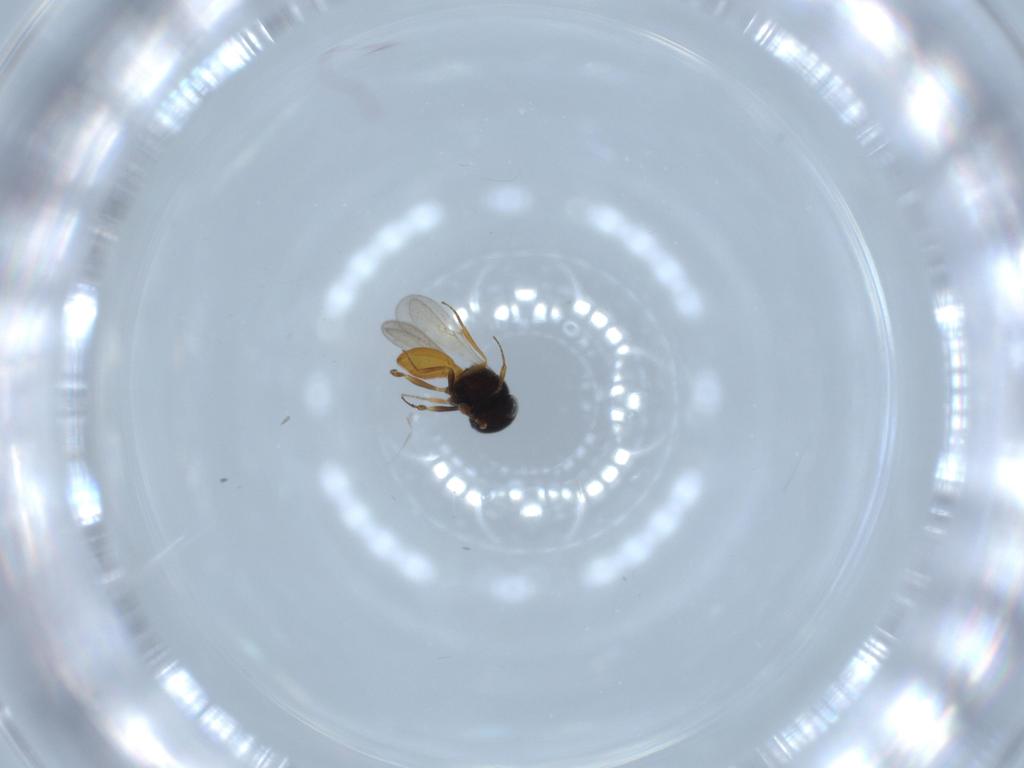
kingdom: Animalia
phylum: Arthropoda
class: Insecta
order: Hymenoptera
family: Scelionidae
